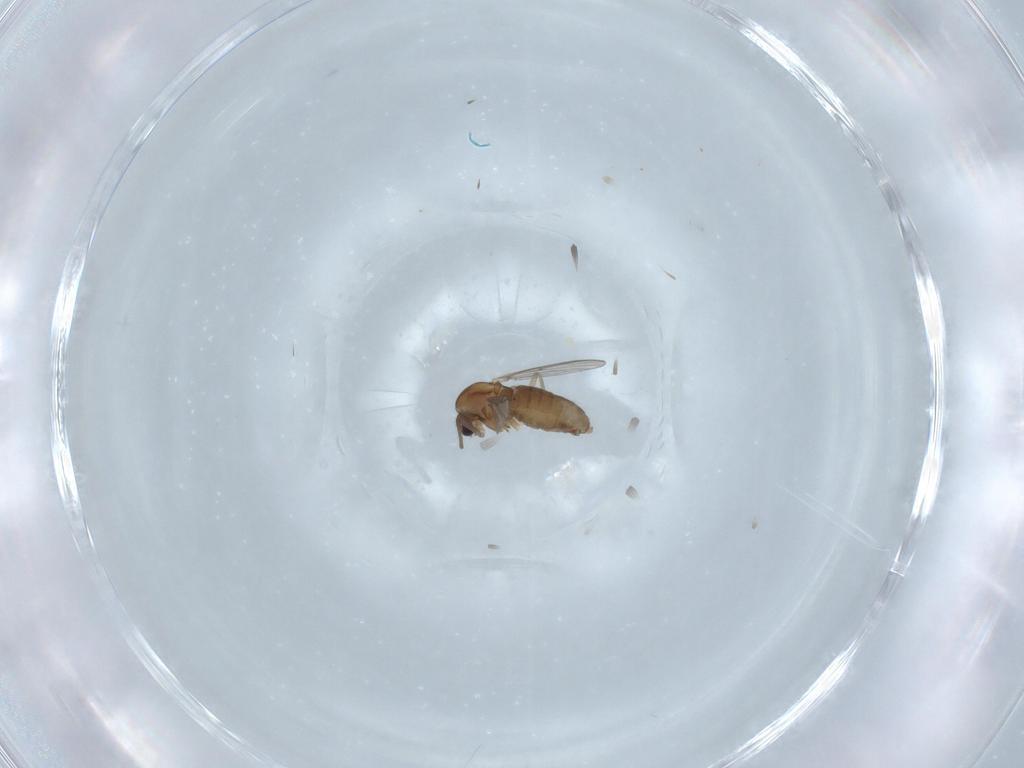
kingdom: Animalia
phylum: Arthropoda
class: Insecta
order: Diptera
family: Chironomidae
